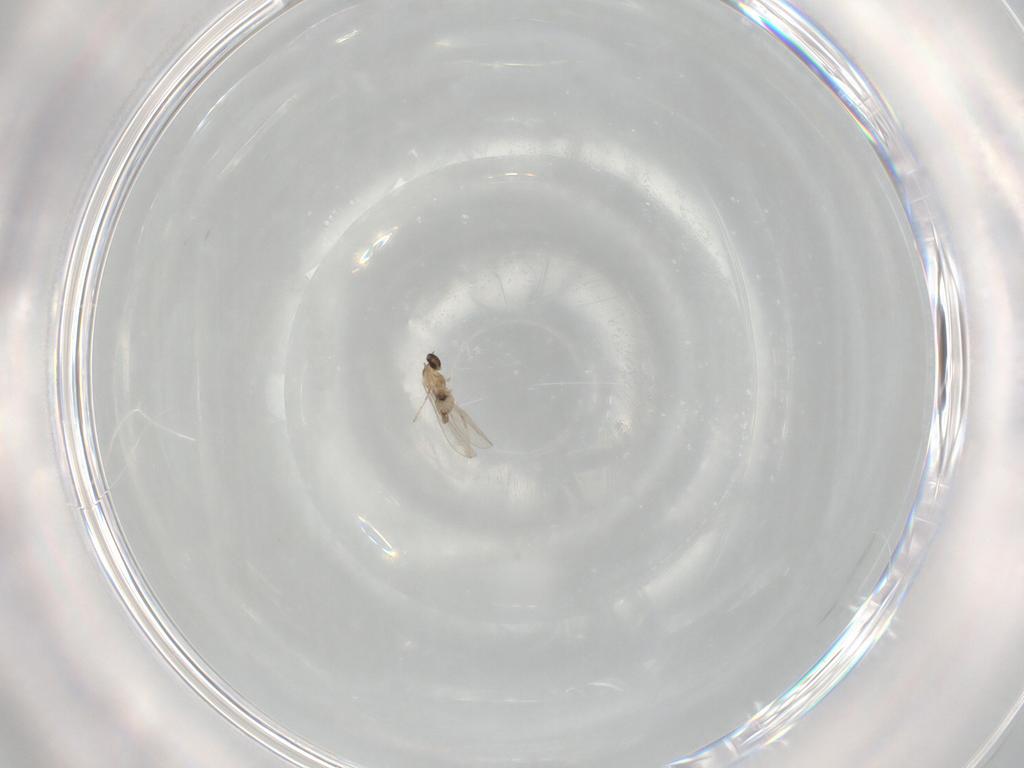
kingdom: Animalia
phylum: Arthropoda
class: Insecta
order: Diptera
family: Cecidomyiidae
